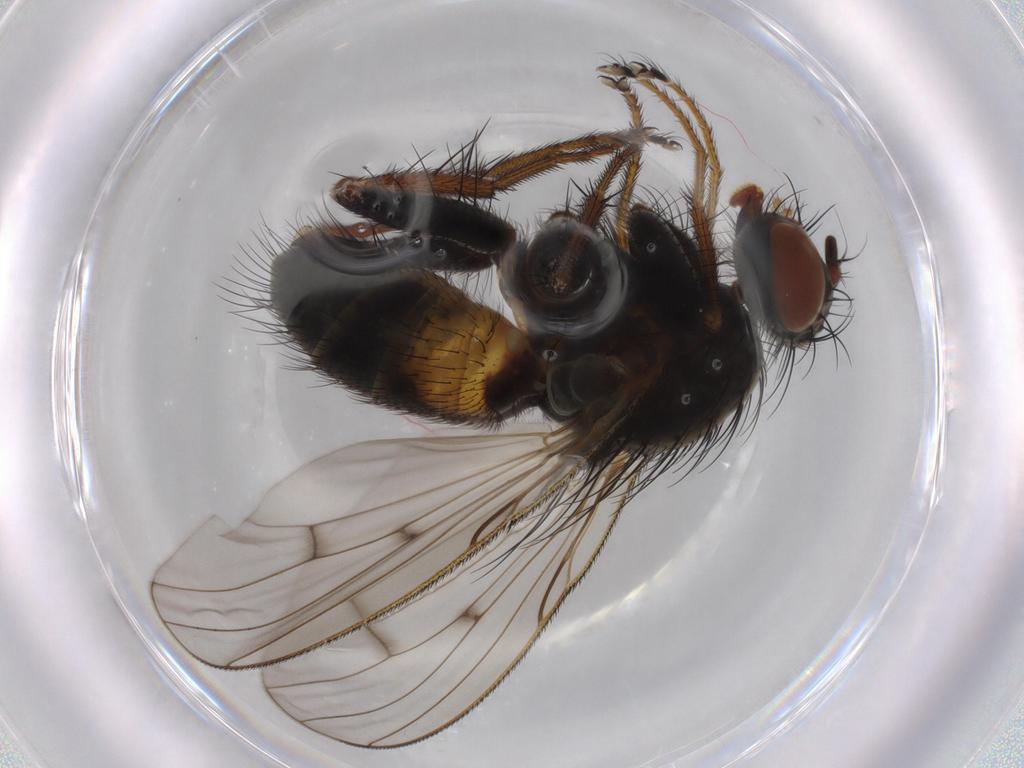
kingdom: Animalia
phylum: Arthropoda
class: Insecta
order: Diptera
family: Muscidae
